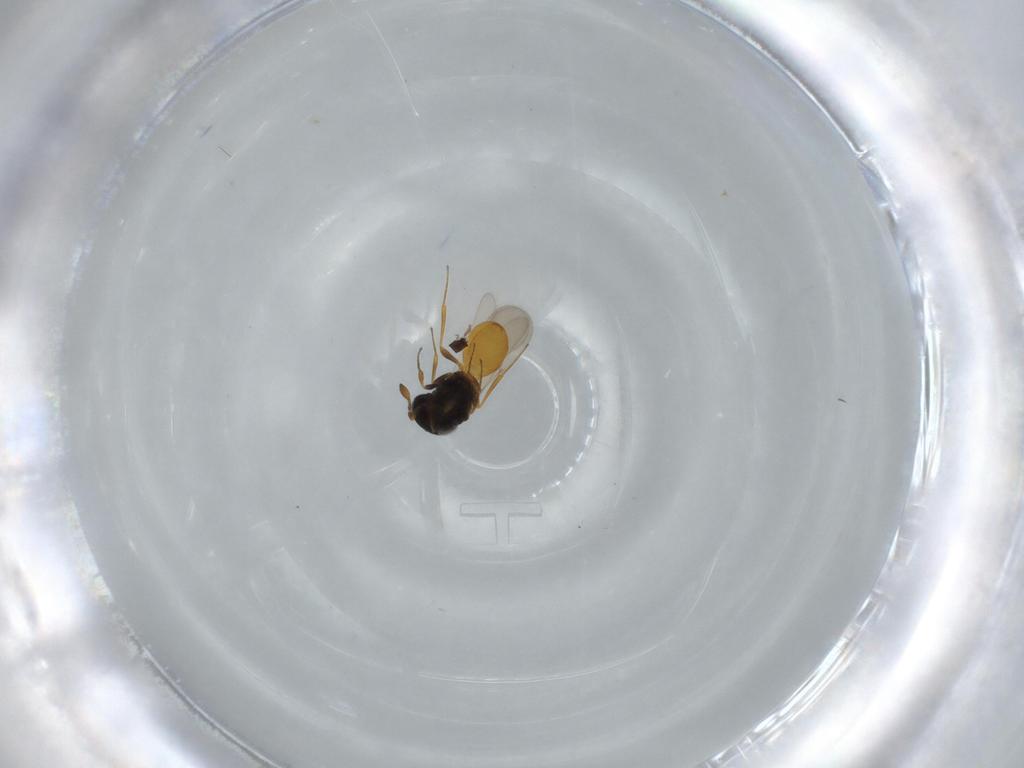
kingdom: Animalia
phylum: Arthropoda
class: Insecta
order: Hymenoptera
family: Scelionidae
